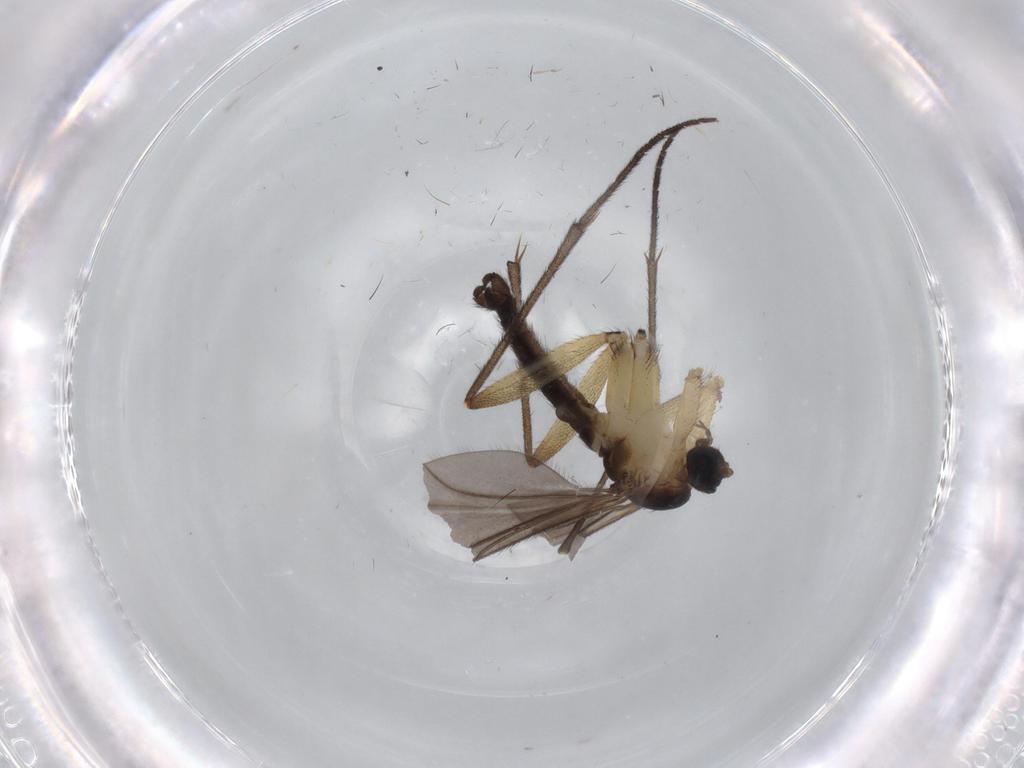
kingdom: Animalia
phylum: Arthropoda
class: Insecta
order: Diptera
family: Sciaridae
